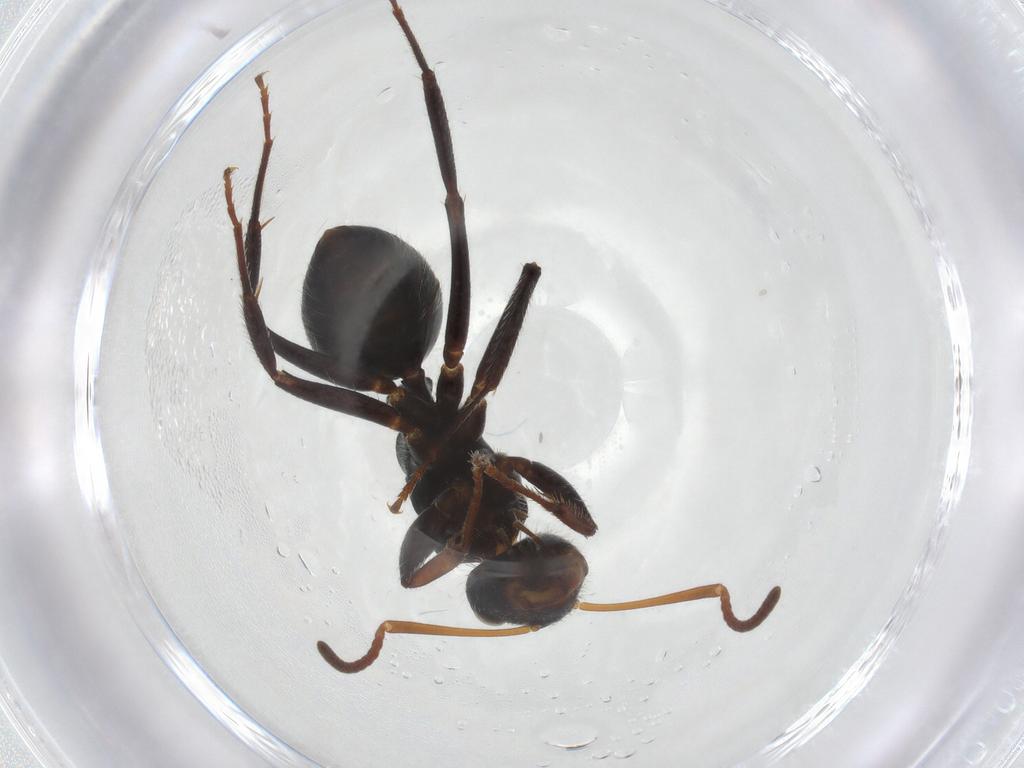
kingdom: Animalia
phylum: Arthropoda
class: Insecta
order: Hymenoptera
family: Formicidae
